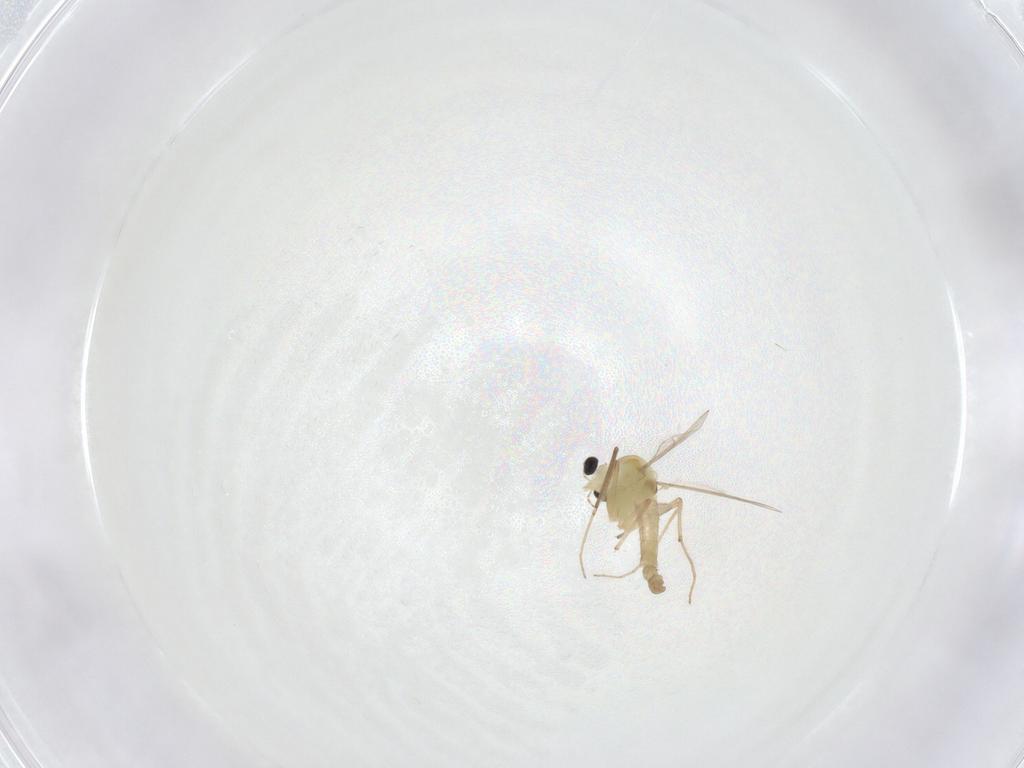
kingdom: Animalia
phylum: Arthropoda
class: Insecta
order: Diptera
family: Chironomidae
